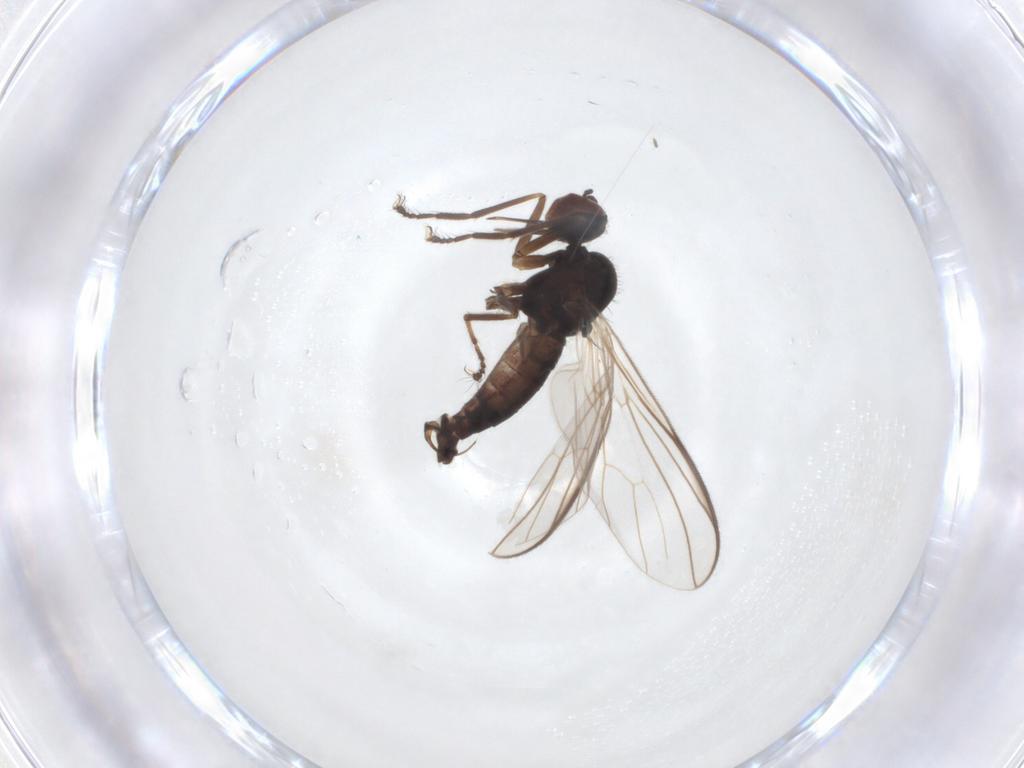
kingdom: Animalia
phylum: Arthropoda
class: Insecta
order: Diptera
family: Empididae
